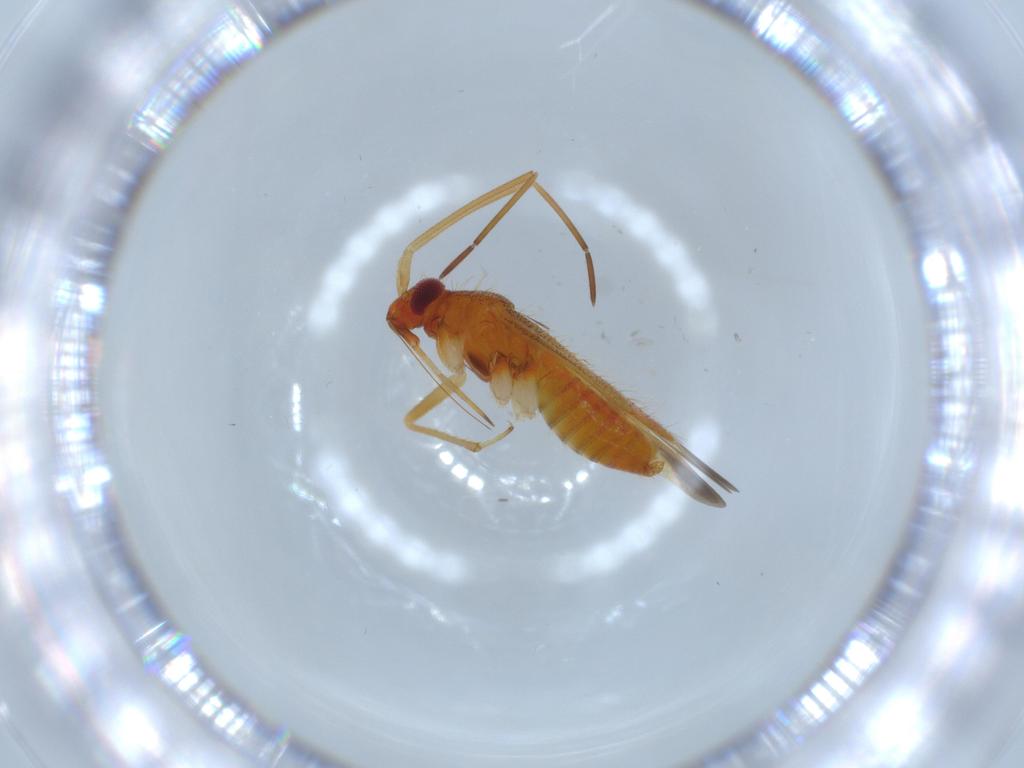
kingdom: Animalia
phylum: Arthropoda
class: Insecta
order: Hemiptera
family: Miridae
